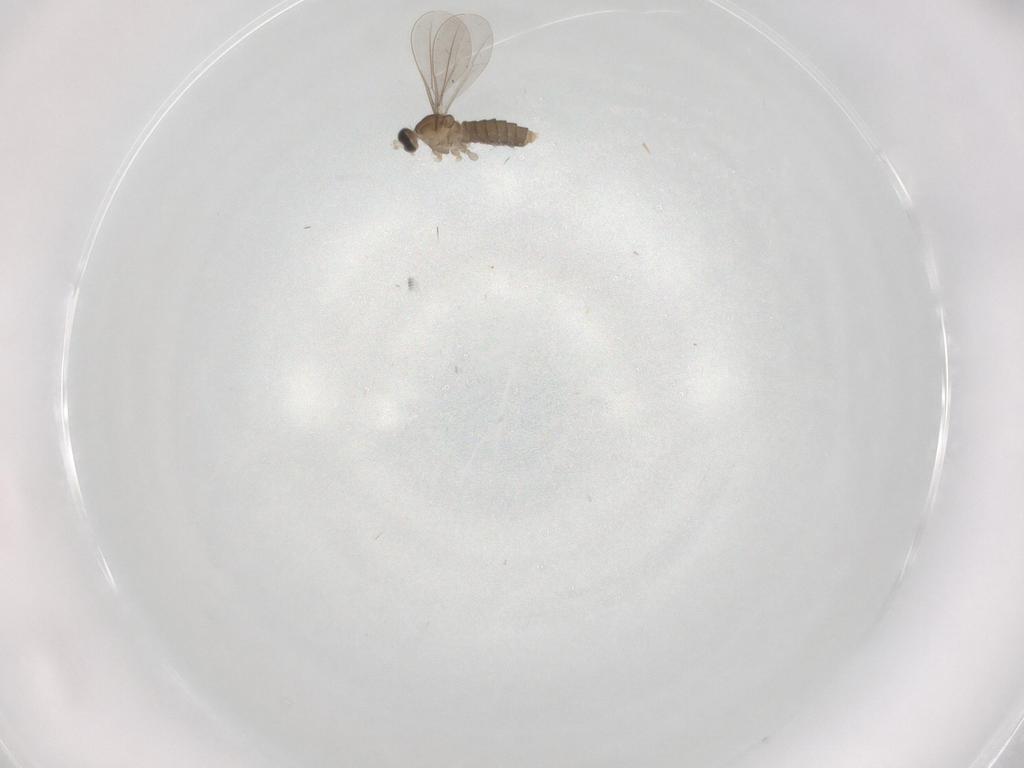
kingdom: Animalia
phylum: Arthropoda
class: Insecta
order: Diptera
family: Cecidomyiidae
